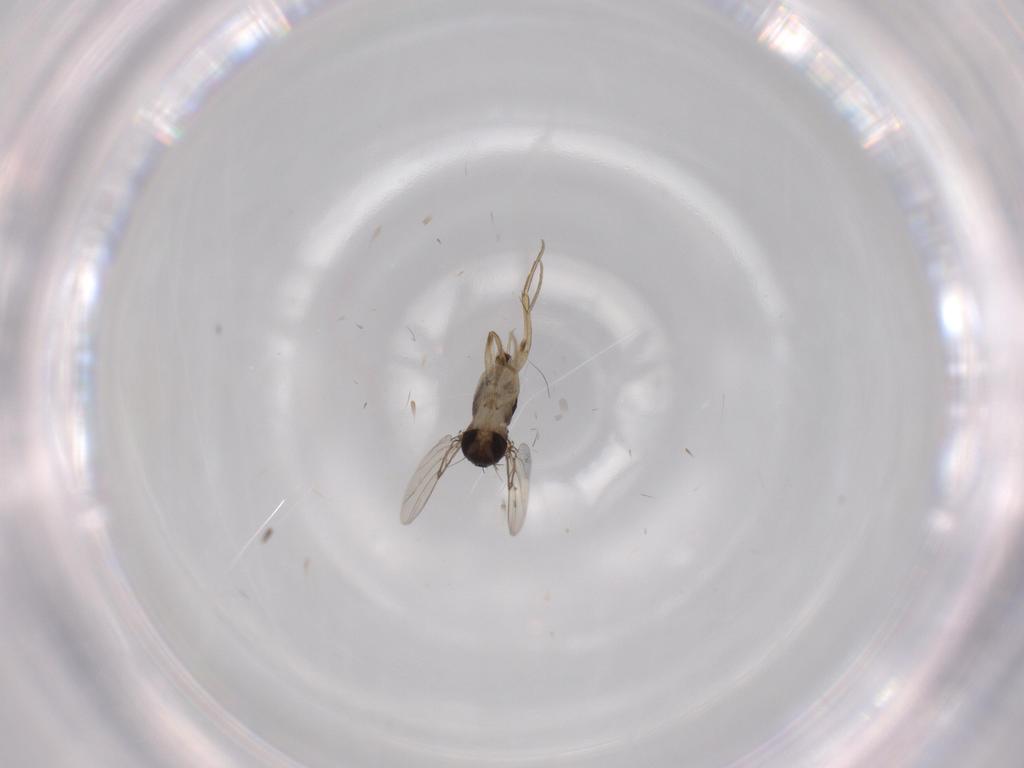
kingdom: Animalia
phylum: Arthropoda
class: Insecta
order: Diptera
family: Phoridae
